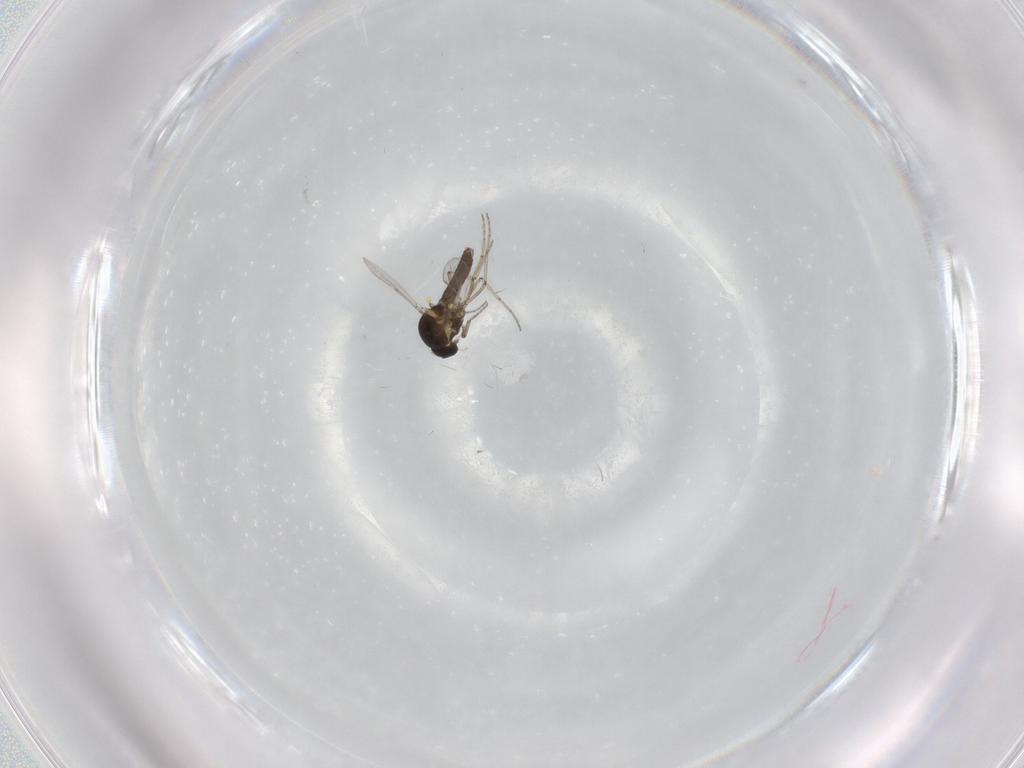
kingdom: Animalia
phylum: Arthropoda
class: Insecta
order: Diptera
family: Ceratopogonidae
